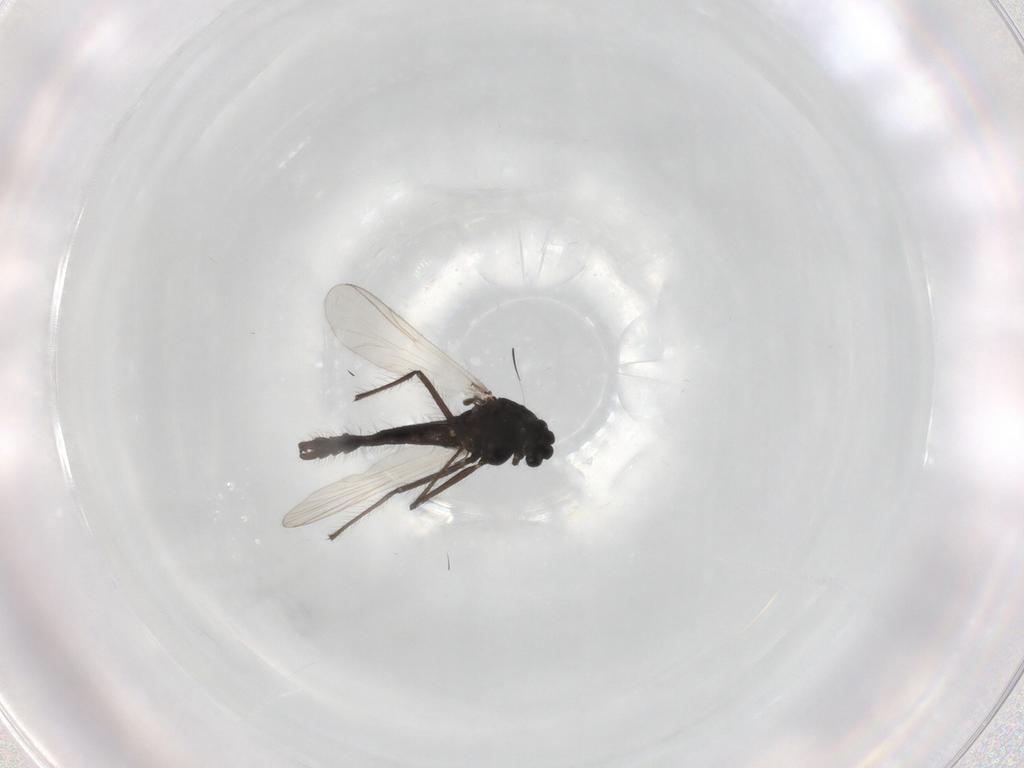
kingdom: Animalia
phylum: Arthropoda
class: Insecta
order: Diptera
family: Chironomidae
